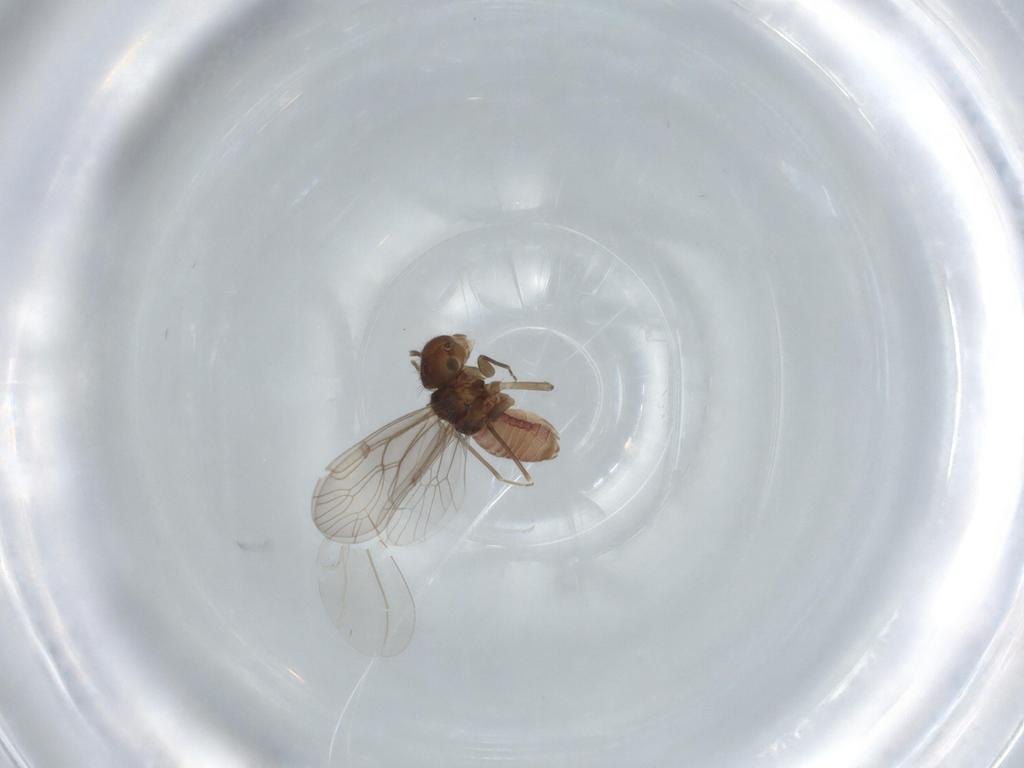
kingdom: Animalia
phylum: Arthropoda
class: Insecta
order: Psocodea
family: Ectopsocidae
